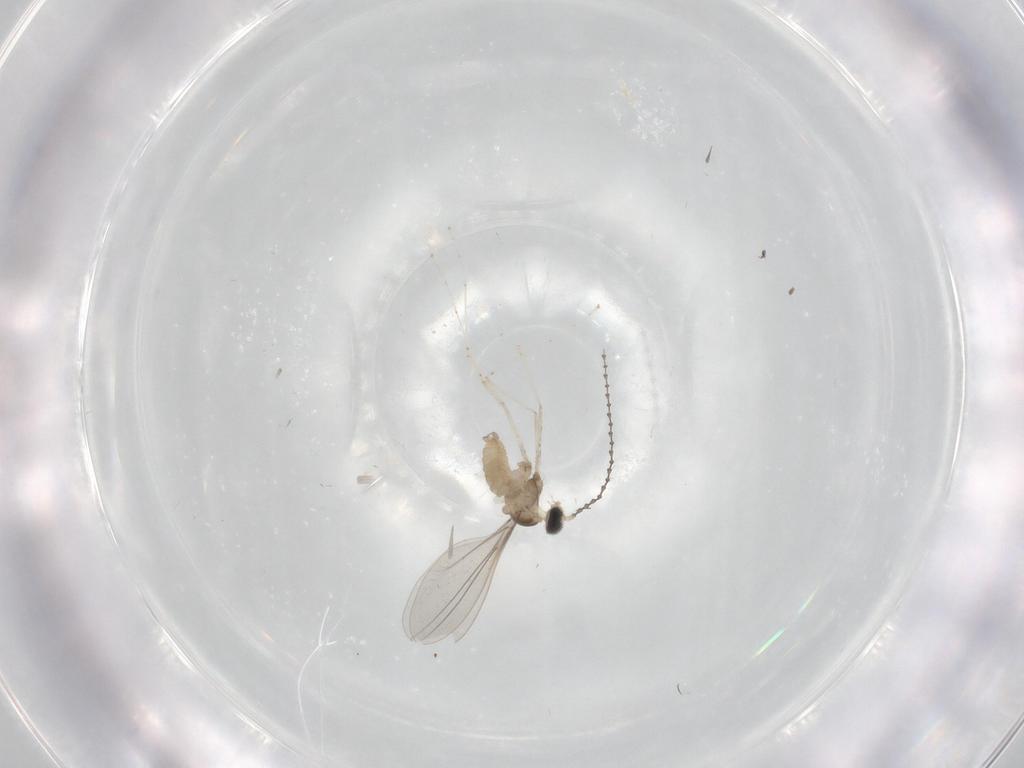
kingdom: Animalia
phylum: Arthropoda
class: Insecta
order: Diptera
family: Cecidomyiidae
